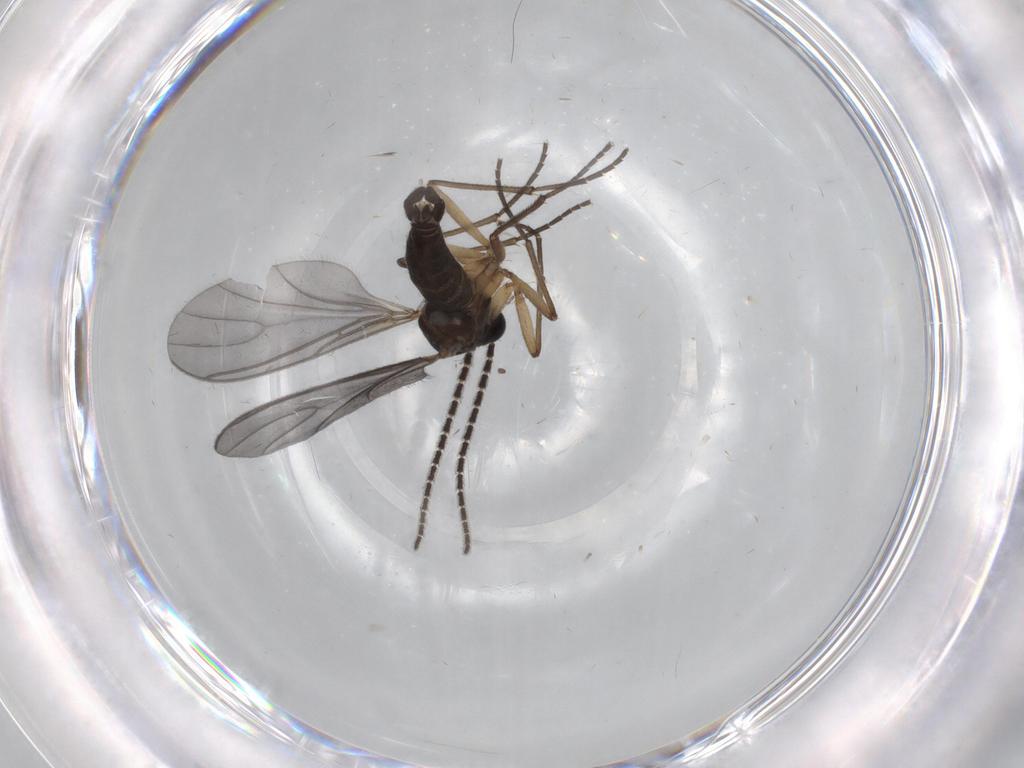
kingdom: Animalia
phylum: Arthropoda
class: Insecta
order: Diptera
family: Sciaridae
